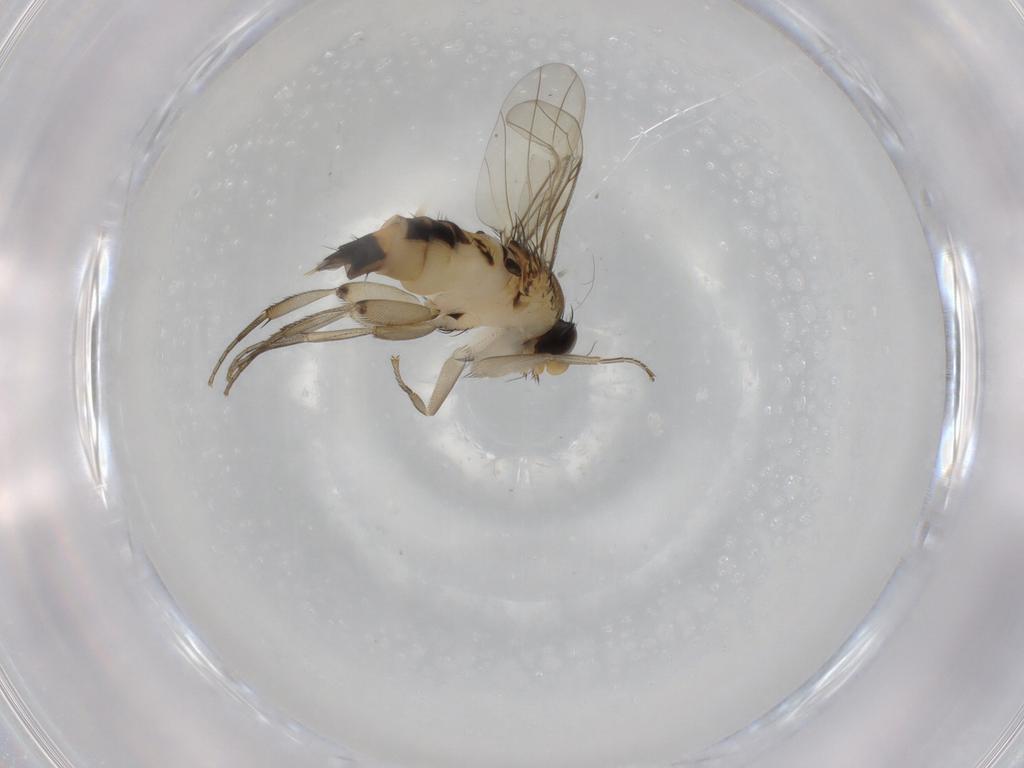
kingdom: Animalia
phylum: Arthropoda
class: Insecta
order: Diptera
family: Phoridae
